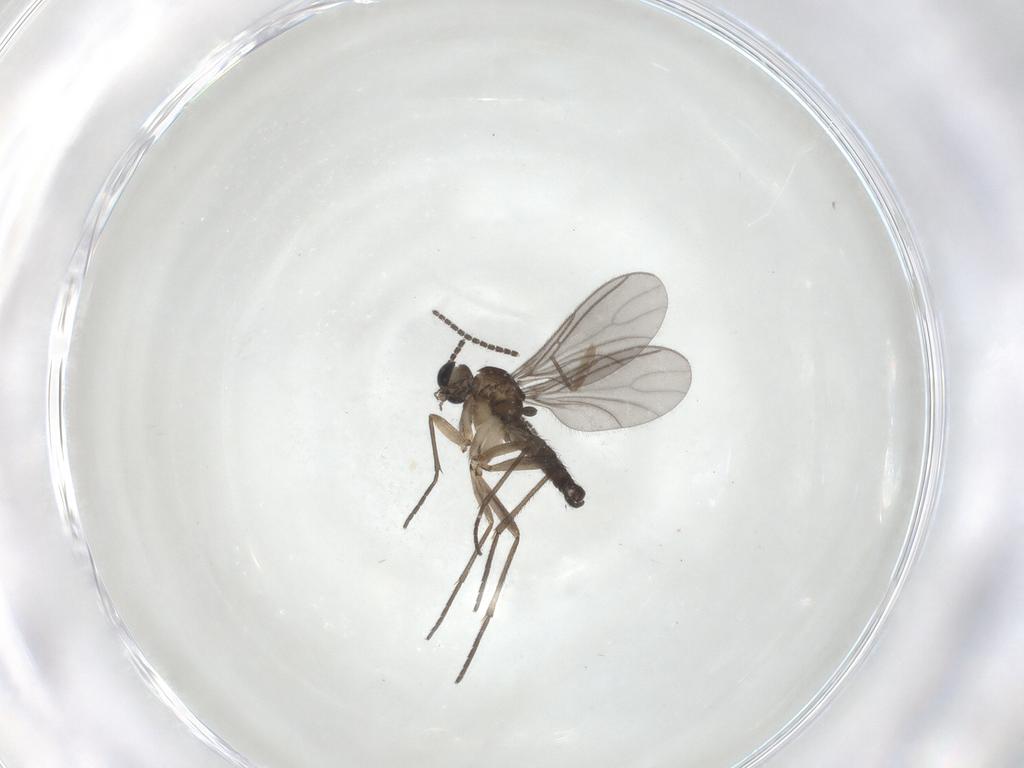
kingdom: Animalia
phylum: Arthropoda
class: Insecta
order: Diptera
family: Sciaridae
